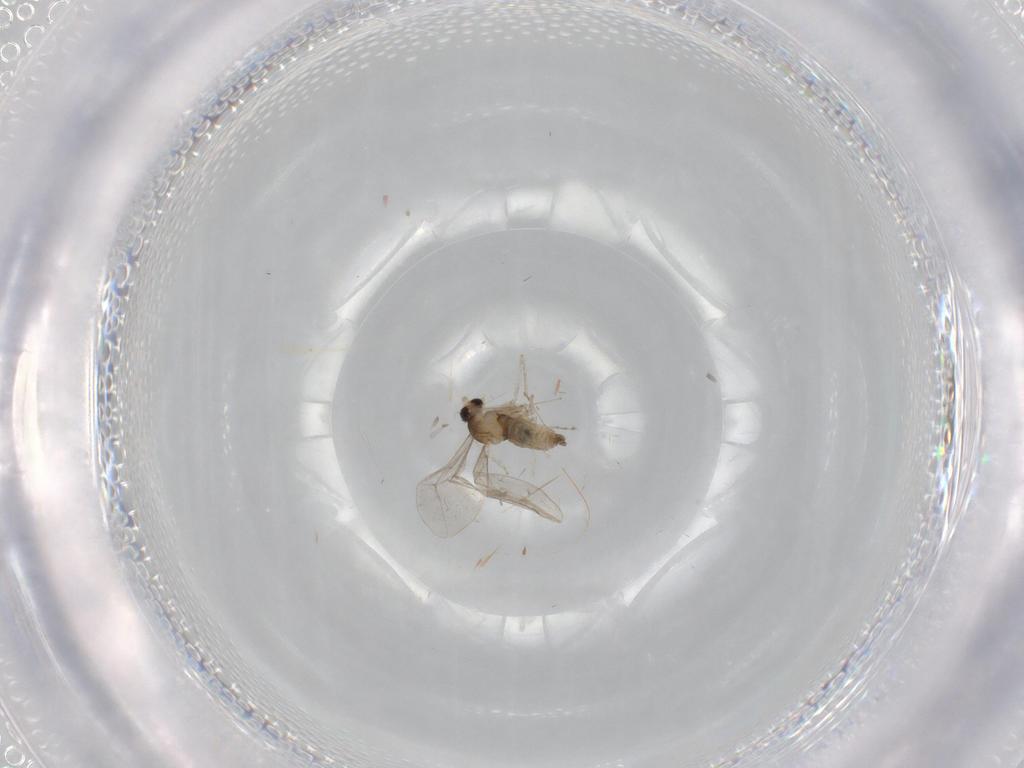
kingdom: Animalia
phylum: Arthropoda
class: Insecta
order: Diptera
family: Cecidomyiidae
